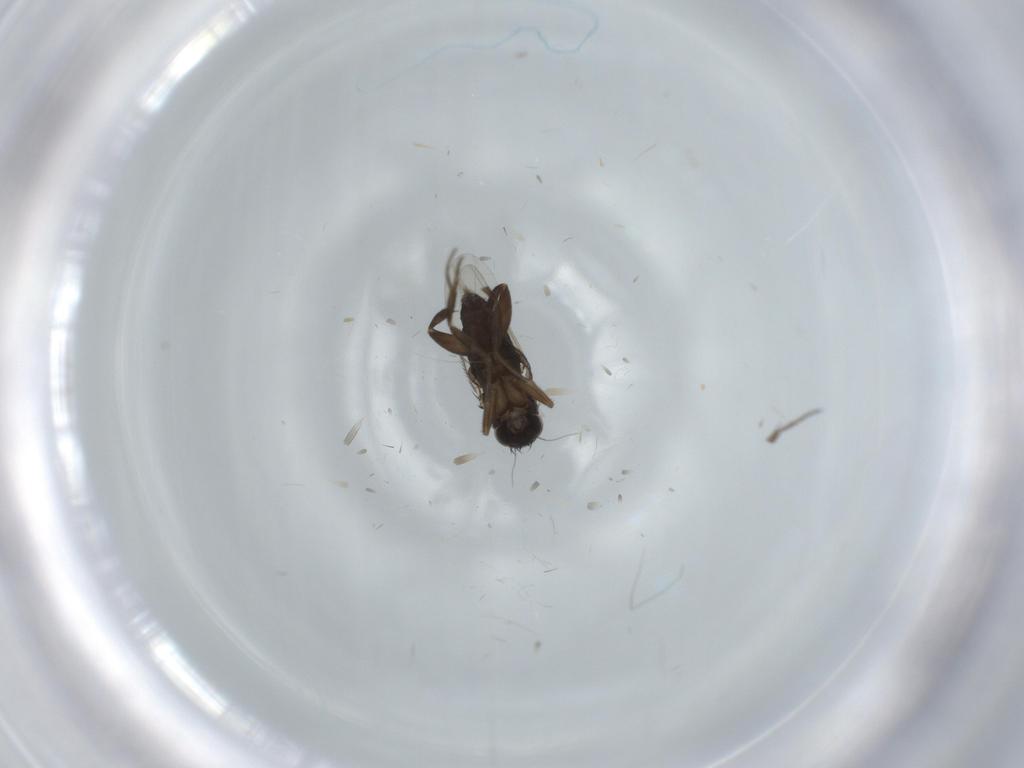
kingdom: Animalia
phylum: Arthropoda
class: Insecta
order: Diptera
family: Phoridae
